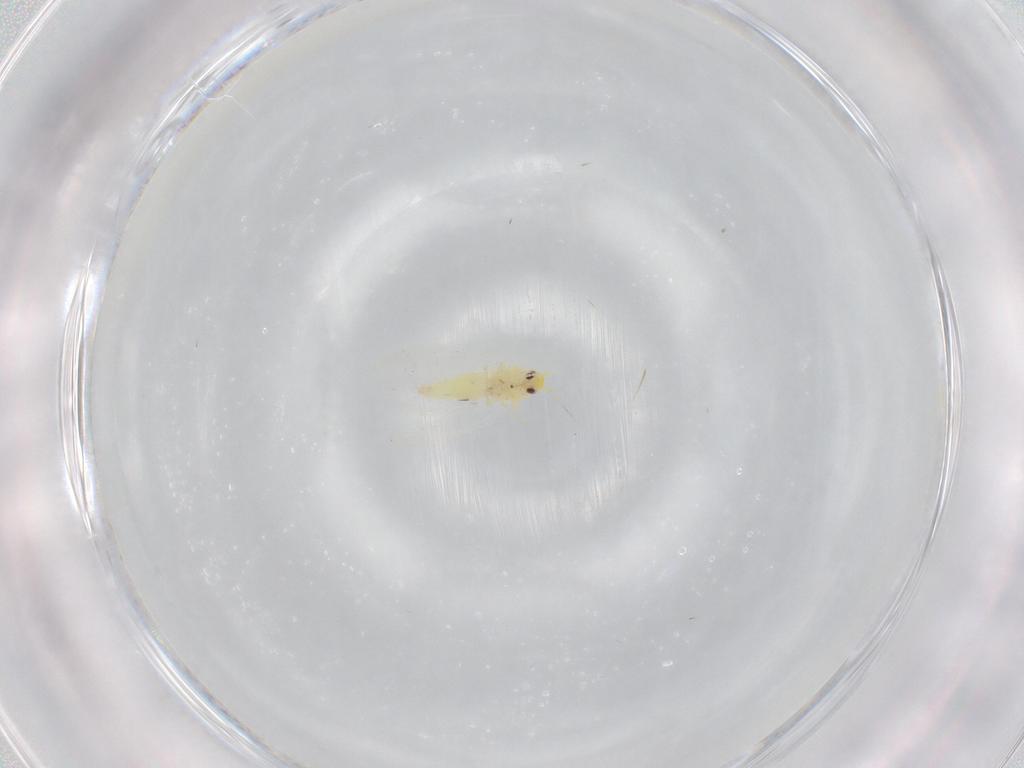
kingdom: Animalia
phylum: Arthropoda
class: Insecta
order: Hemiptera
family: Aleyrodidae
